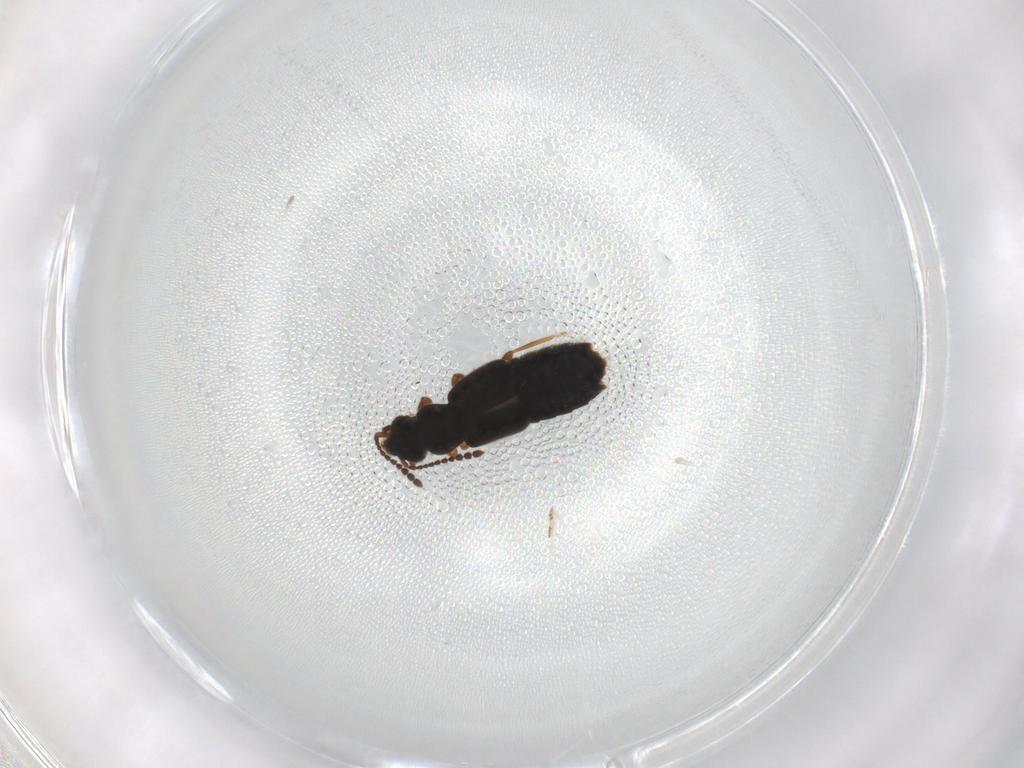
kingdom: Animalia
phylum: Arthropoda
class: Insecta
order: Coleoptera
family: Staphylinidae
